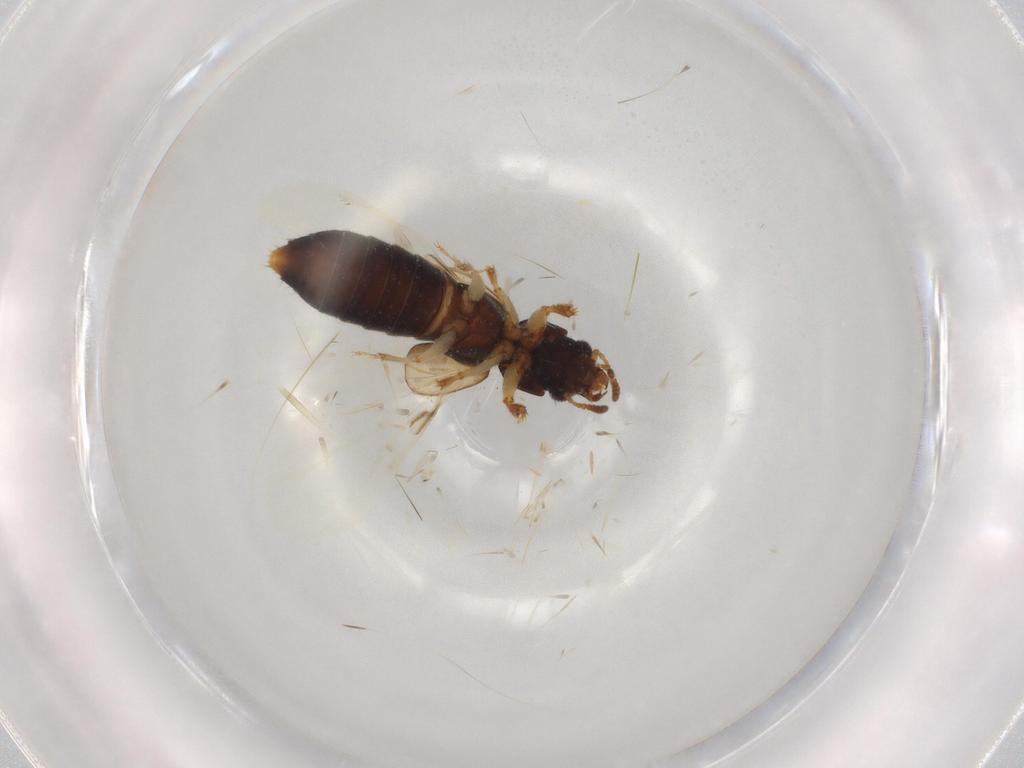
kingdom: Animalia
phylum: Arthropoda
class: Insecta
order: Coleoptera
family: Staphylinidae
